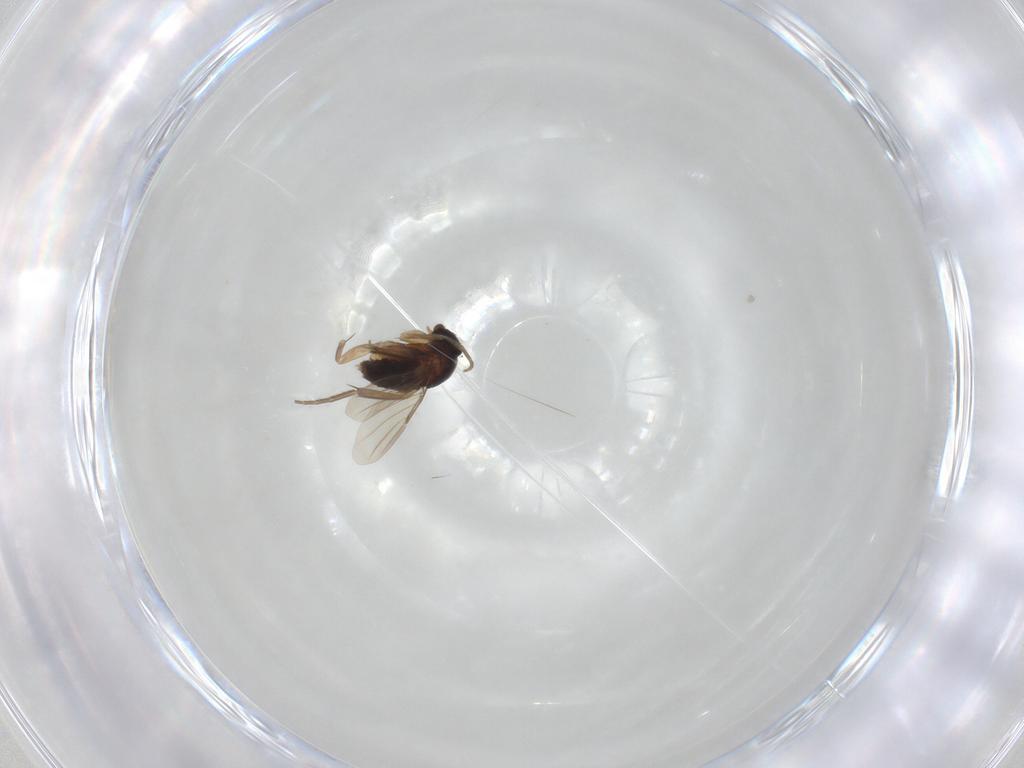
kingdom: Animalia
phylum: Arthropoda
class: Insecta
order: Diptera
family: Phoridae
